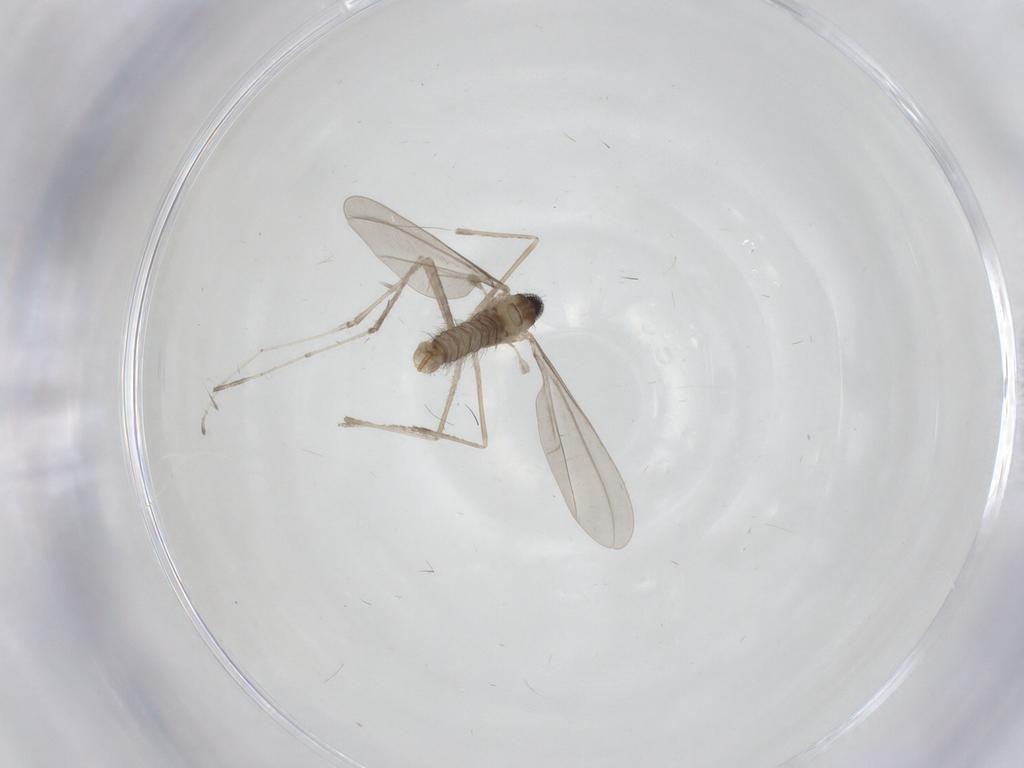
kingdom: Animalia
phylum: Arthropoda
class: Insecta
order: Diptera
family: Cecidomyiidae
